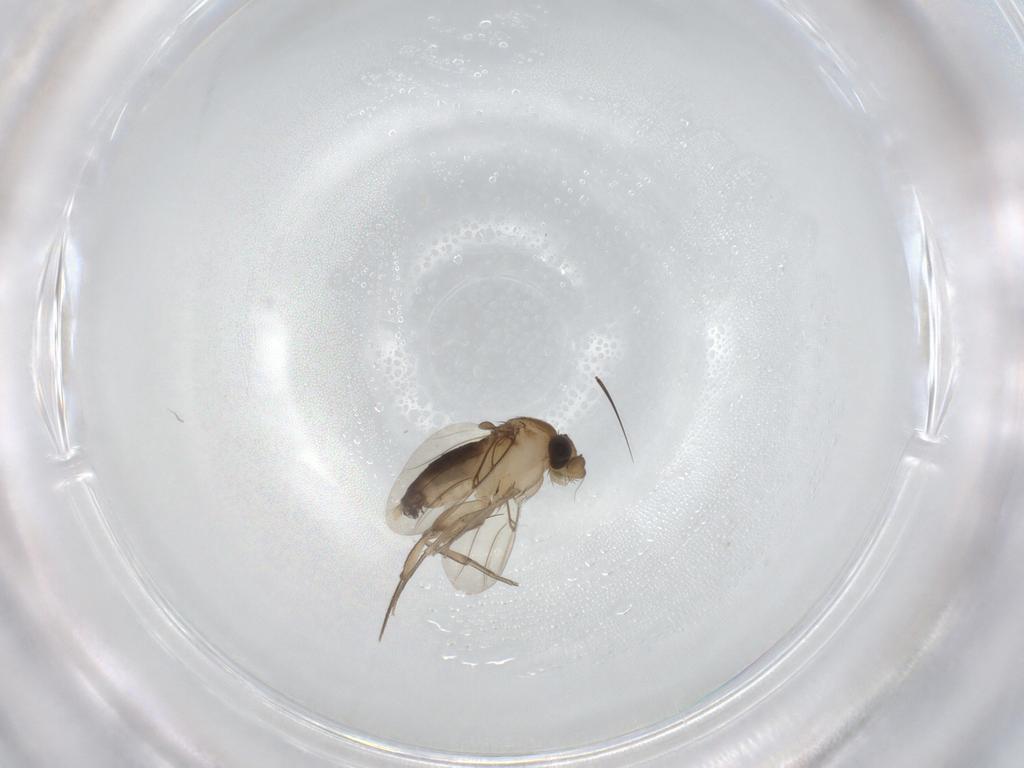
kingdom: Animalia
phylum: Arthropoda
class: Insecta
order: Diptera
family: Phoridae
